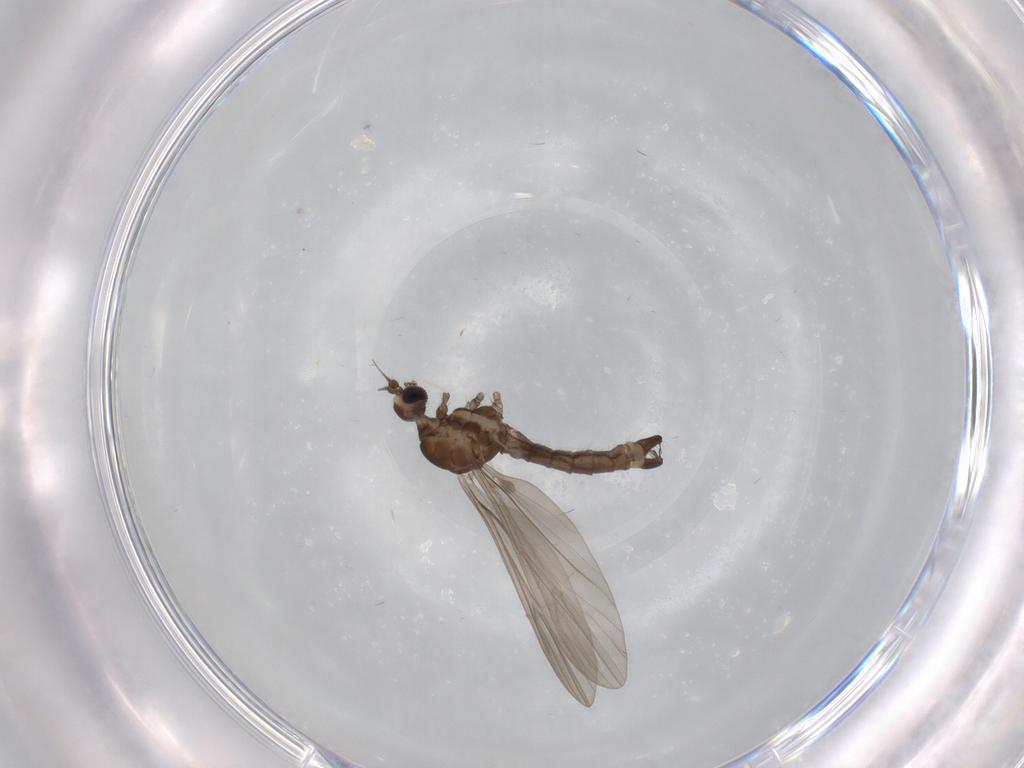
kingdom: Animalia
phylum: Arthropoda
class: Insecta
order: Diptera
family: Limoniidae
